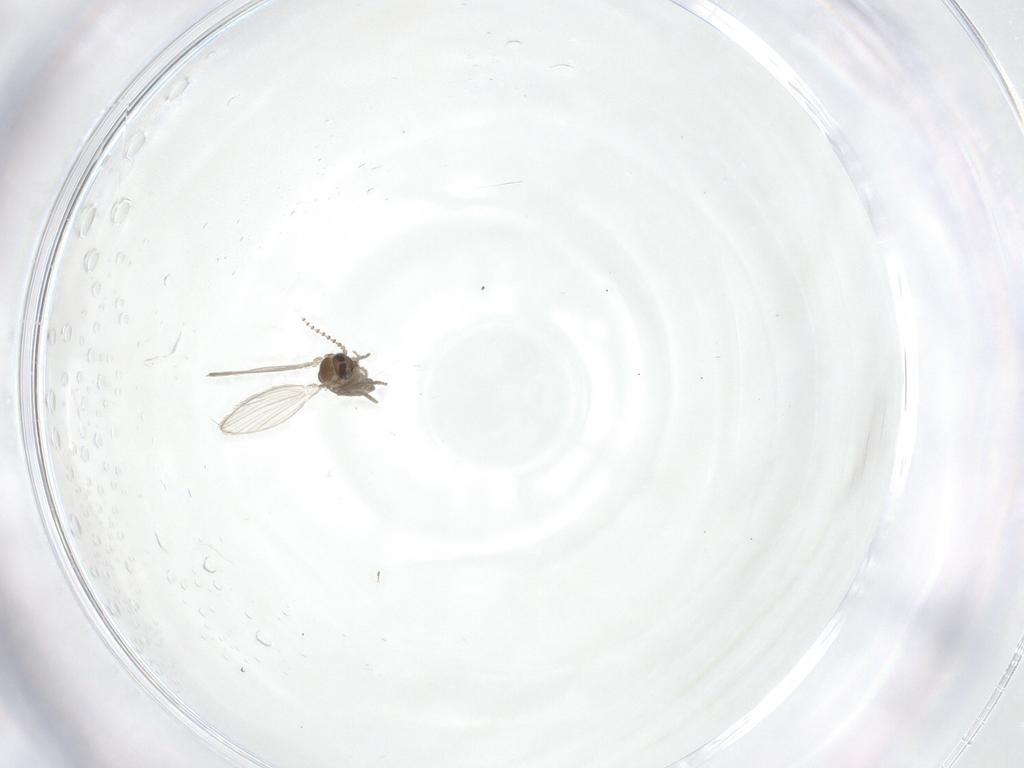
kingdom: Animalia
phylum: Arthropoda
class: Insecta
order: Diptera
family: Psychodidae
